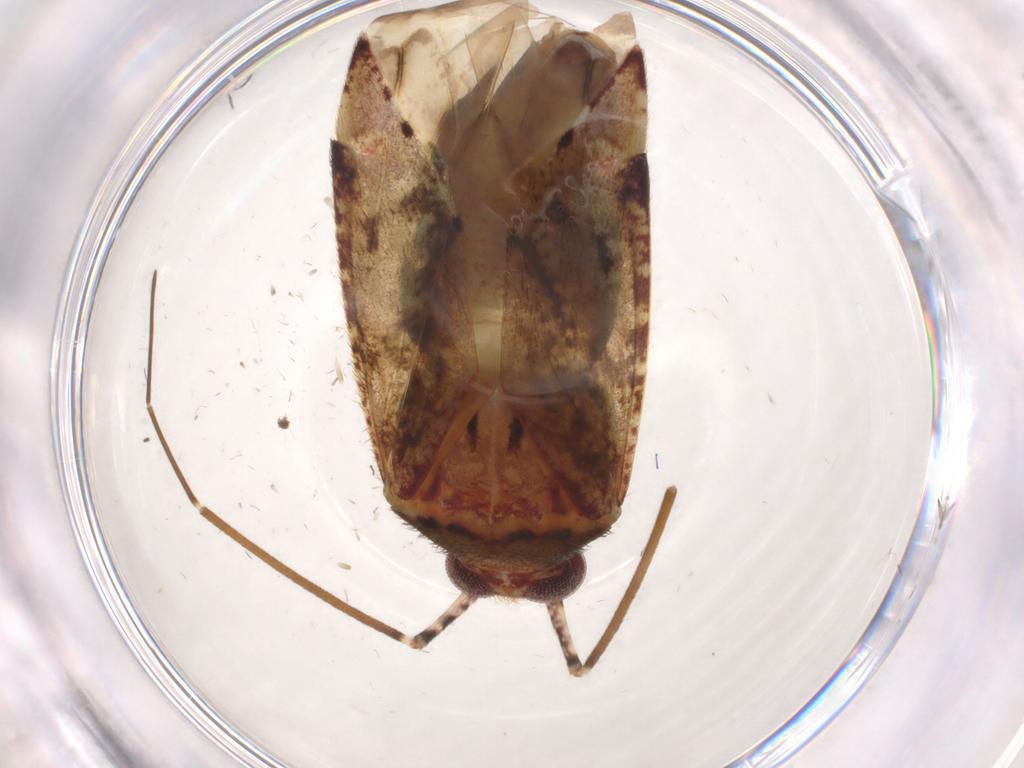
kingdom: Animalia
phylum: Arthropoda
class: Insecta
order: Hemiptera
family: Miridae
